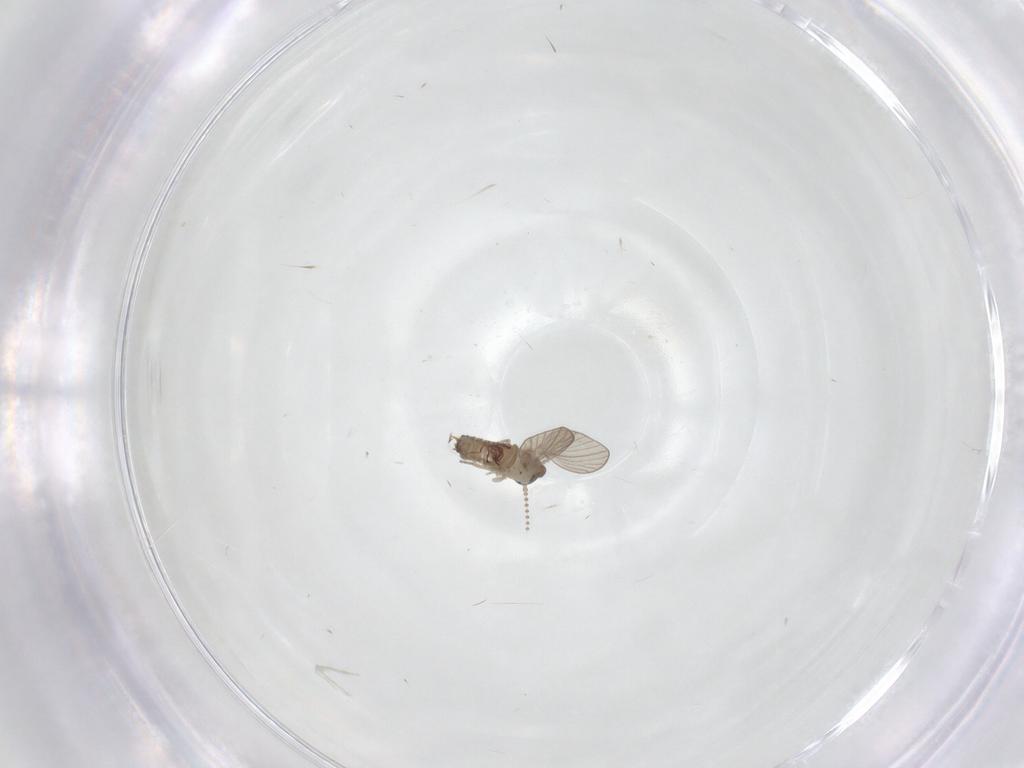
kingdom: Animalia
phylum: Arthropoda
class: Insecta
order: Diptera
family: Psychodidae
